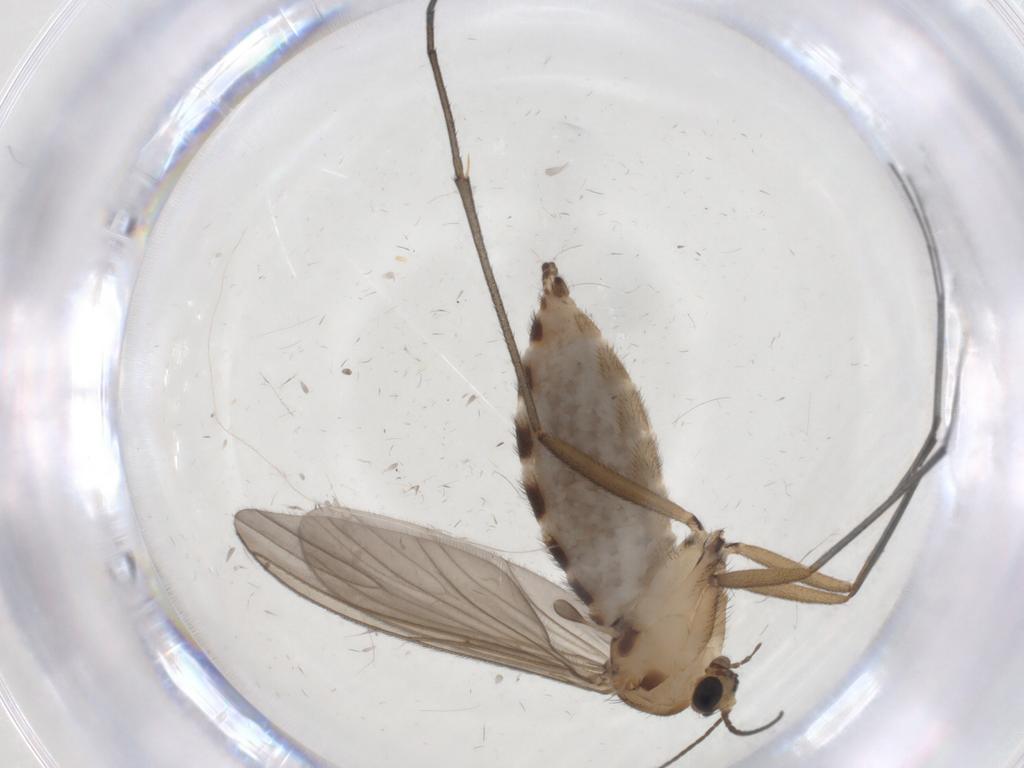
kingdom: Animalia
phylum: Arthropoda
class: Insecta
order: Diptera
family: Sciaridae
